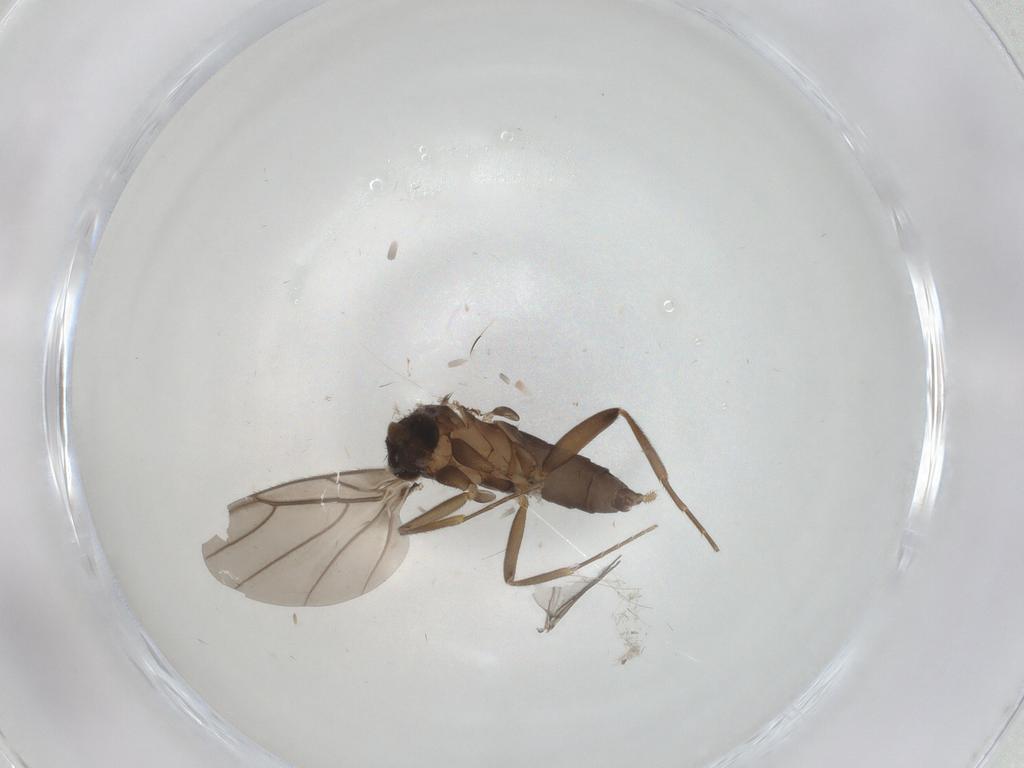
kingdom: Animalia
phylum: Arthropoda
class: Insecta
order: Diptera
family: Phoridae
